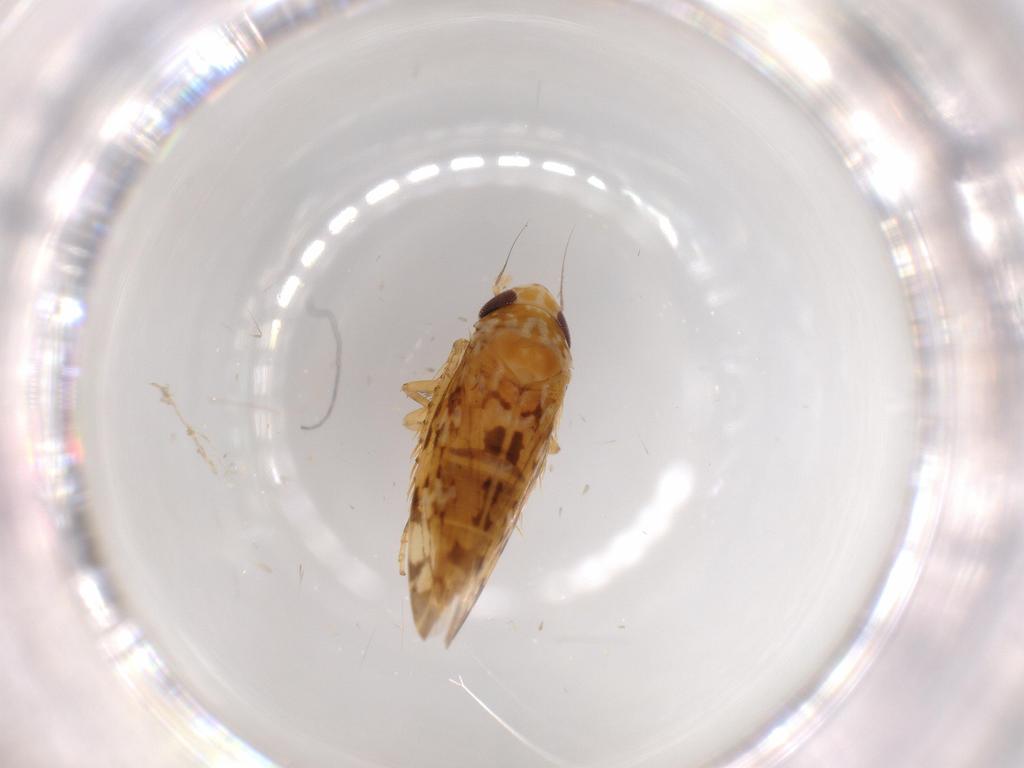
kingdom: Animalia
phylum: Arthropoda
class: Insecta
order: Hemiptera
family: Cicadellidae
